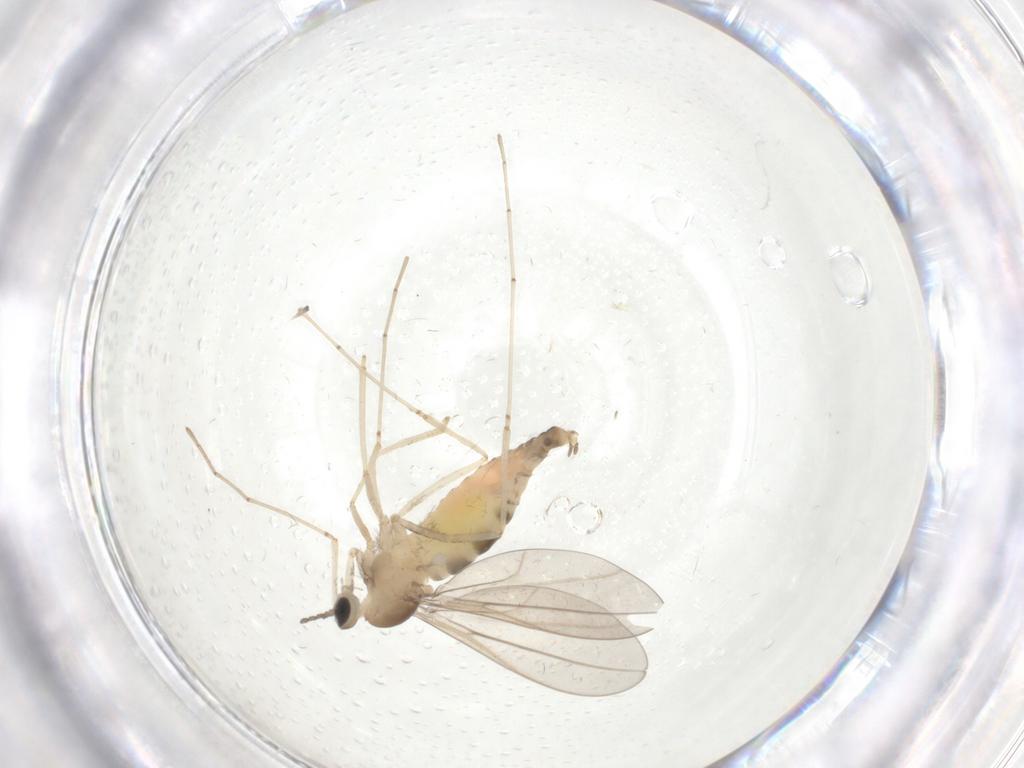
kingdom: Animalia
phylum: Arthropoda
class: Insecta
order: Diptera
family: Cecidomyiidae
